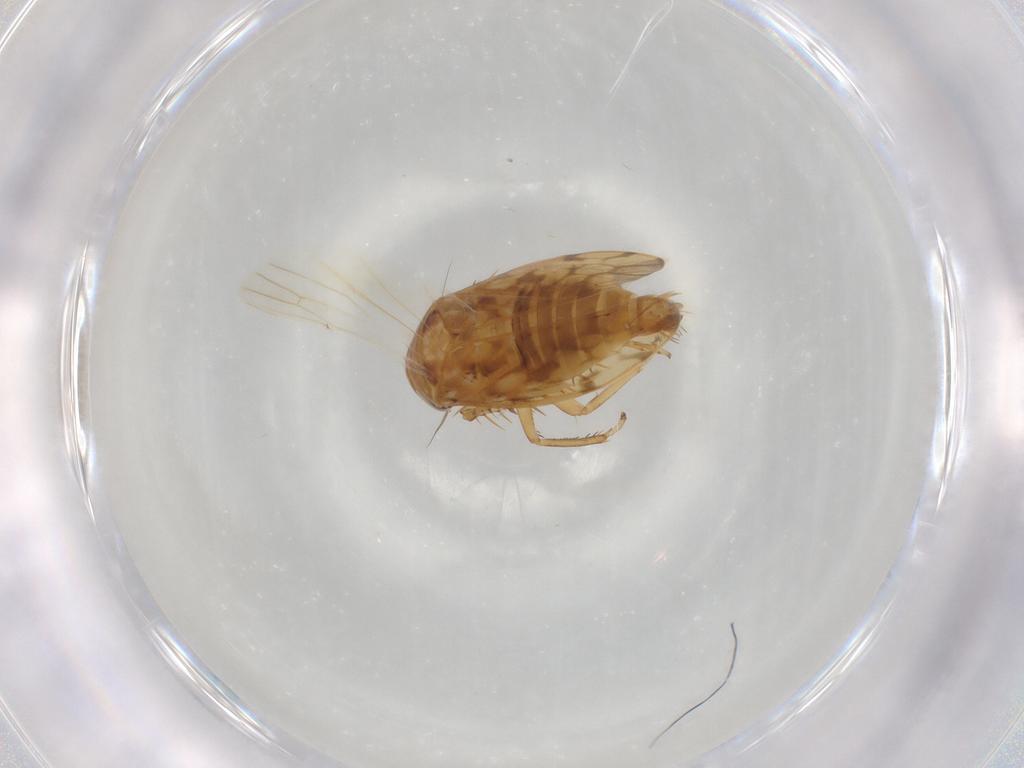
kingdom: Animalia
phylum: Arthropoda
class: Insecta
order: Hemiptera
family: Cicadellidae
